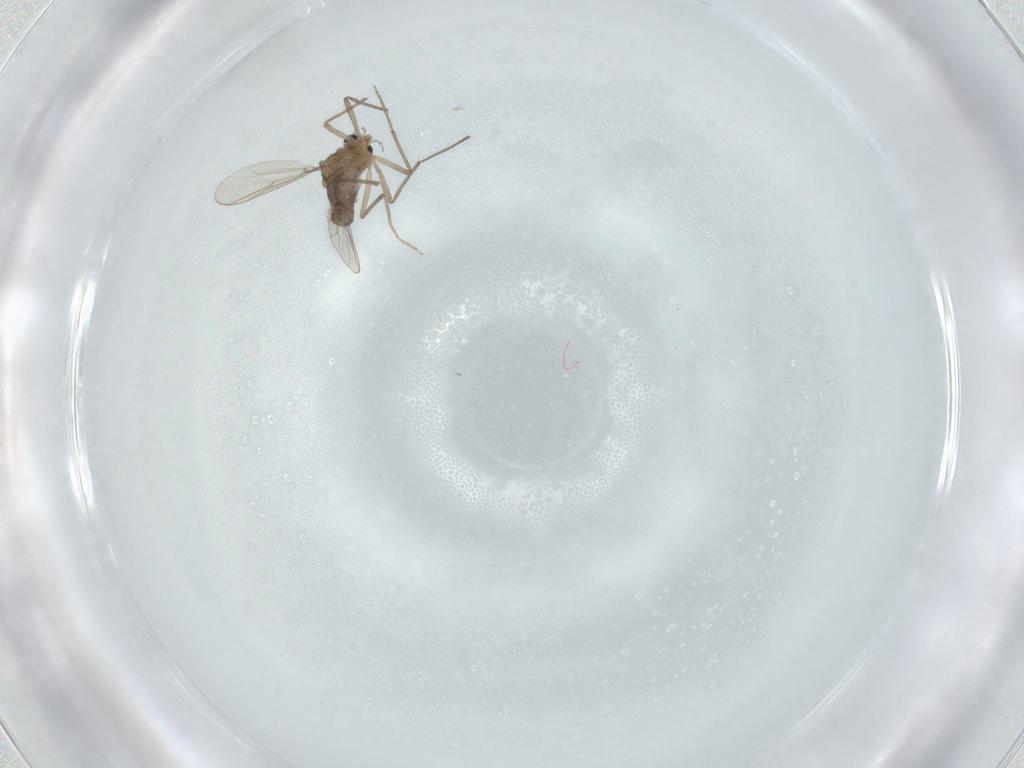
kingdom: Animalia
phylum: Arthropoda
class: Insecta
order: Diptera
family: Chironomidae
